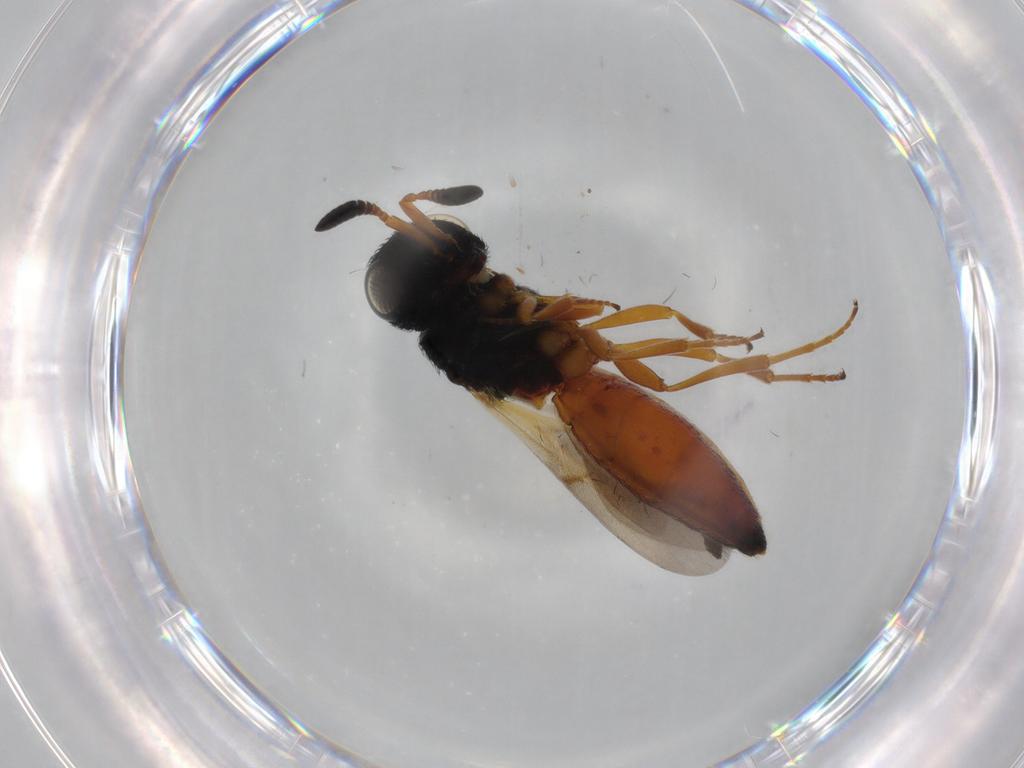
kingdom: Animalia
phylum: Arthropoda
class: Insecta
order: Hymenoptera
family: Scelionidae
